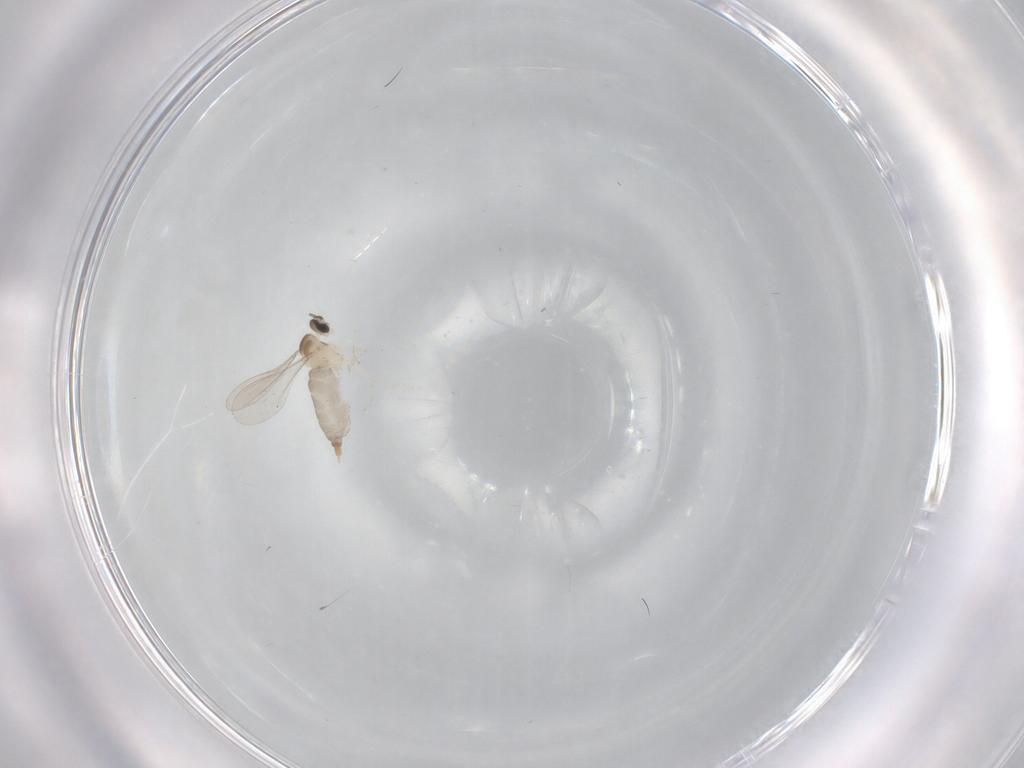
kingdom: Animalia
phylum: Arthropoda
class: Insecta
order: Diptera
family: Cecidomyiidae
